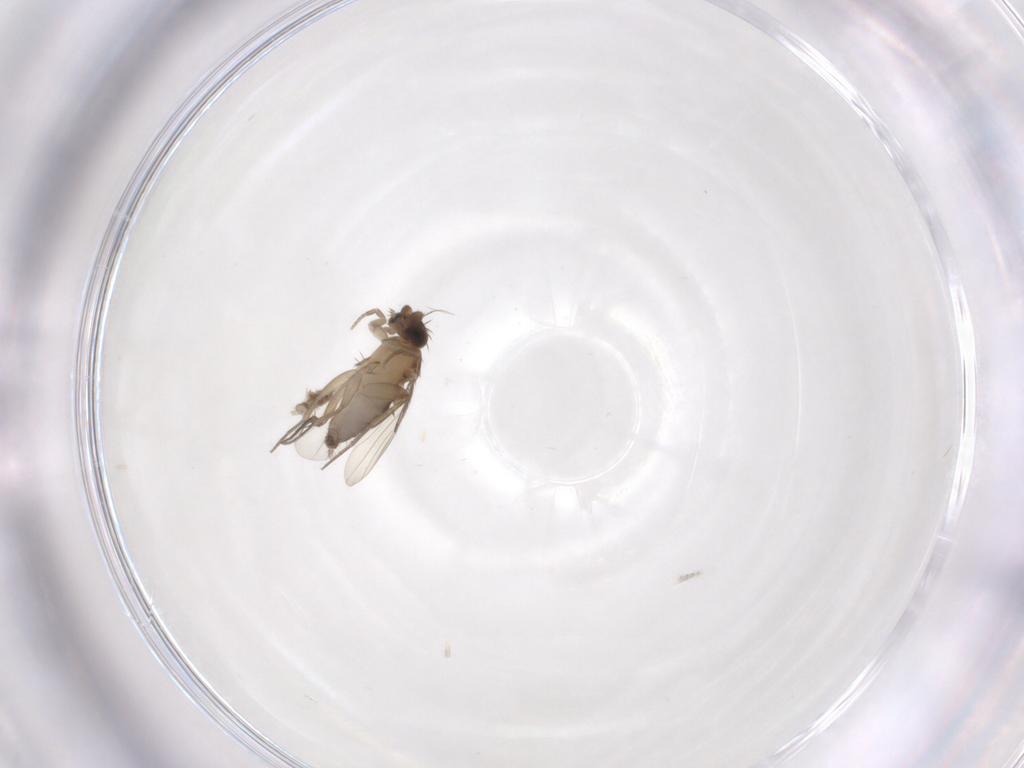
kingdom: Animalia
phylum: Arthropoda
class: Insecta
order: Diptera
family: Phoridae
